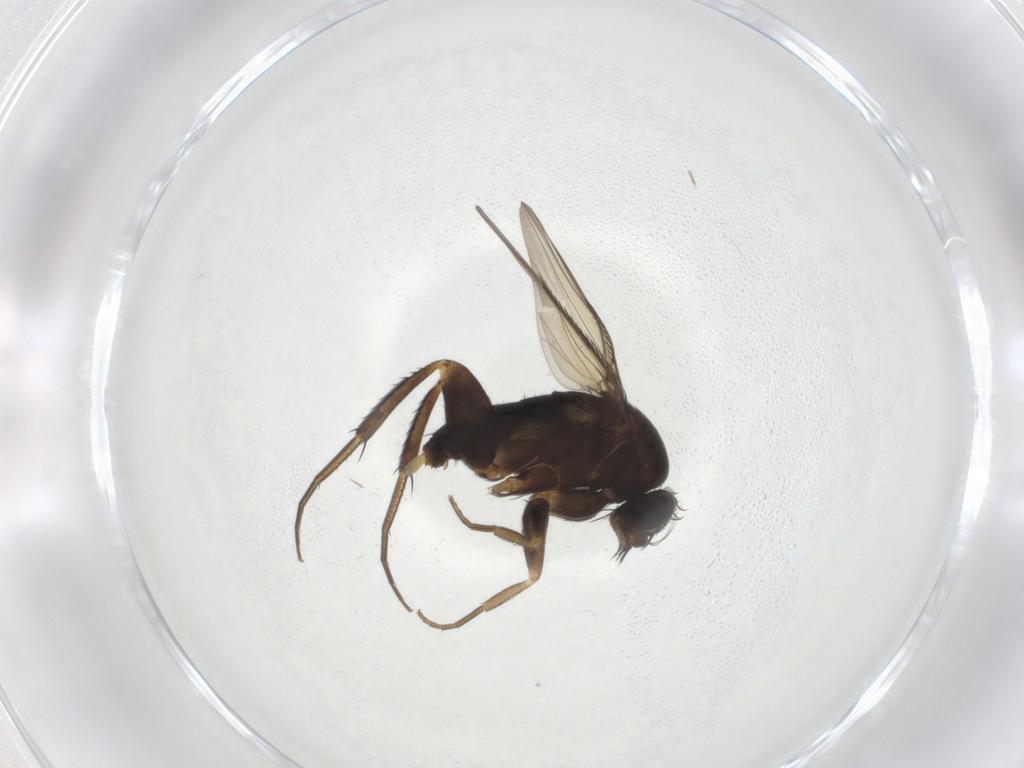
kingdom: Animalia
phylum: Arthropoda
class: Insecta
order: Diptera
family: Phoridae
